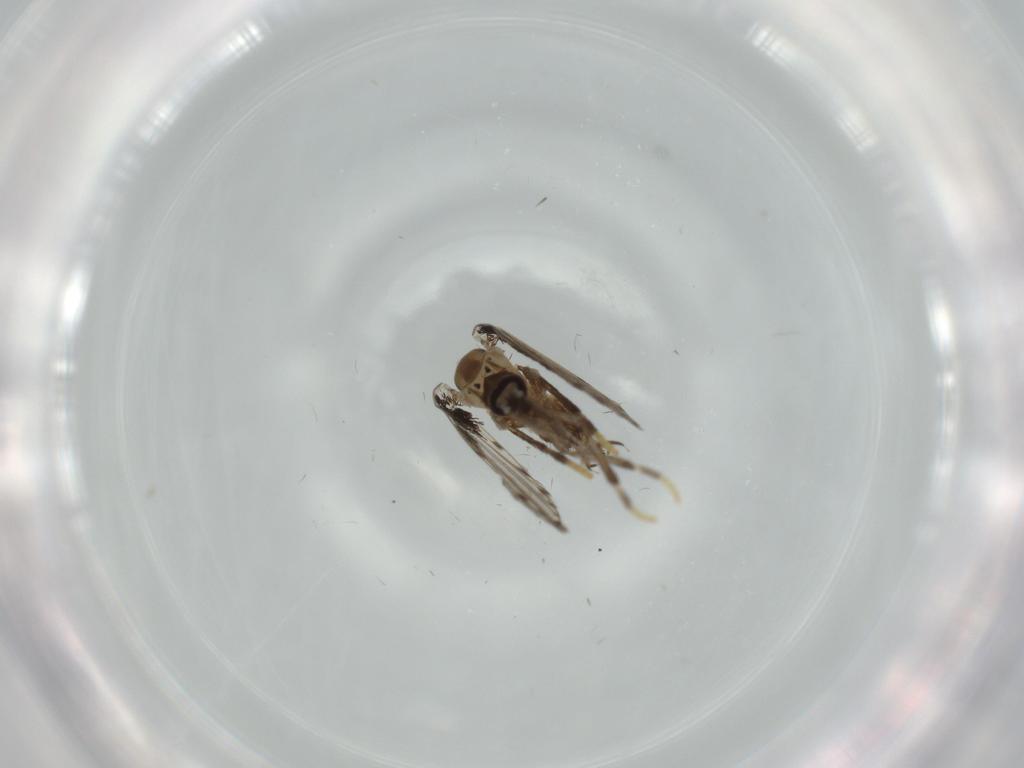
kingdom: Animalia
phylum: Arthropoda
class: Insecta
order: Diptera
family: Psychodidae
